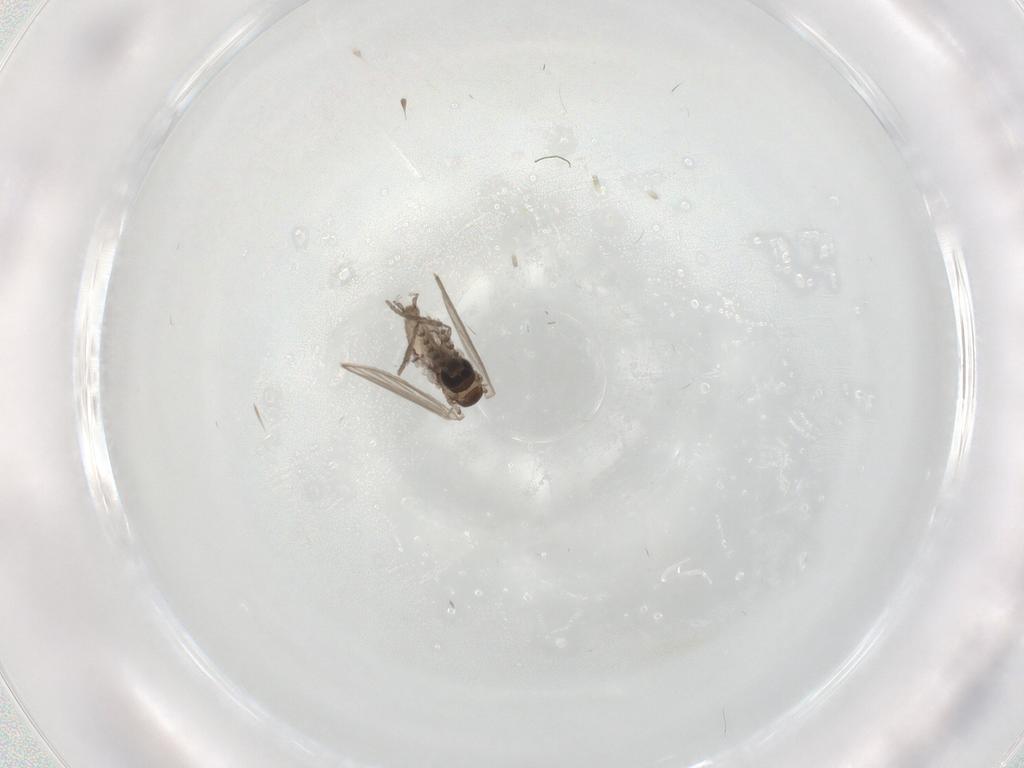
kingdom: Animalia
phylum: Arthropoda
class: Insecta
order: Diptera
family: Psychodidae
